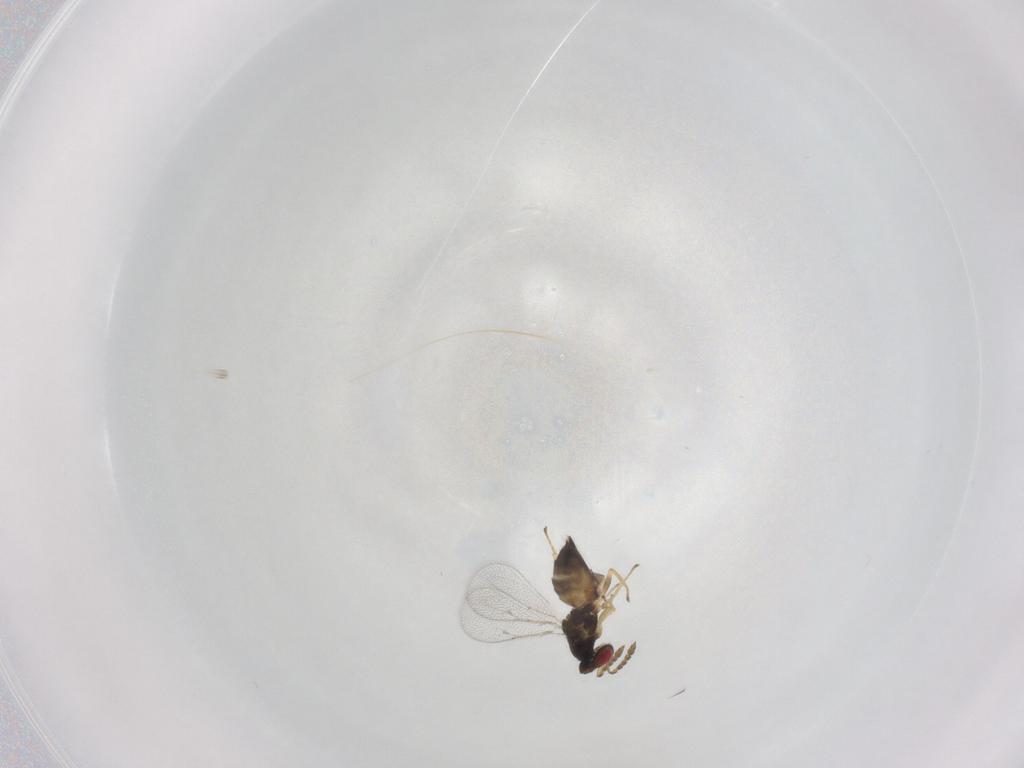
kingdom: Animalia
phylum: Arthropoda
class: Insecta
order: Hymenoptera
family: Eulophidae
